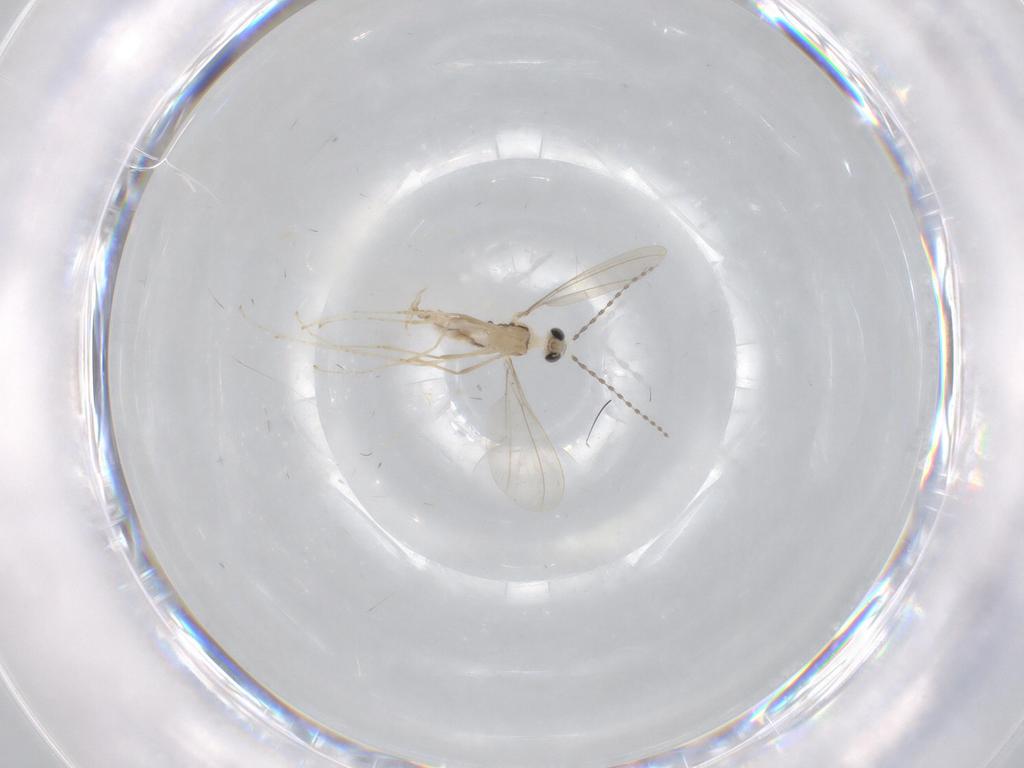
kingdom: Animalia
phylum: Arthropoda
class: Insecta
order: Diptera
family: Cecidomyiidae
